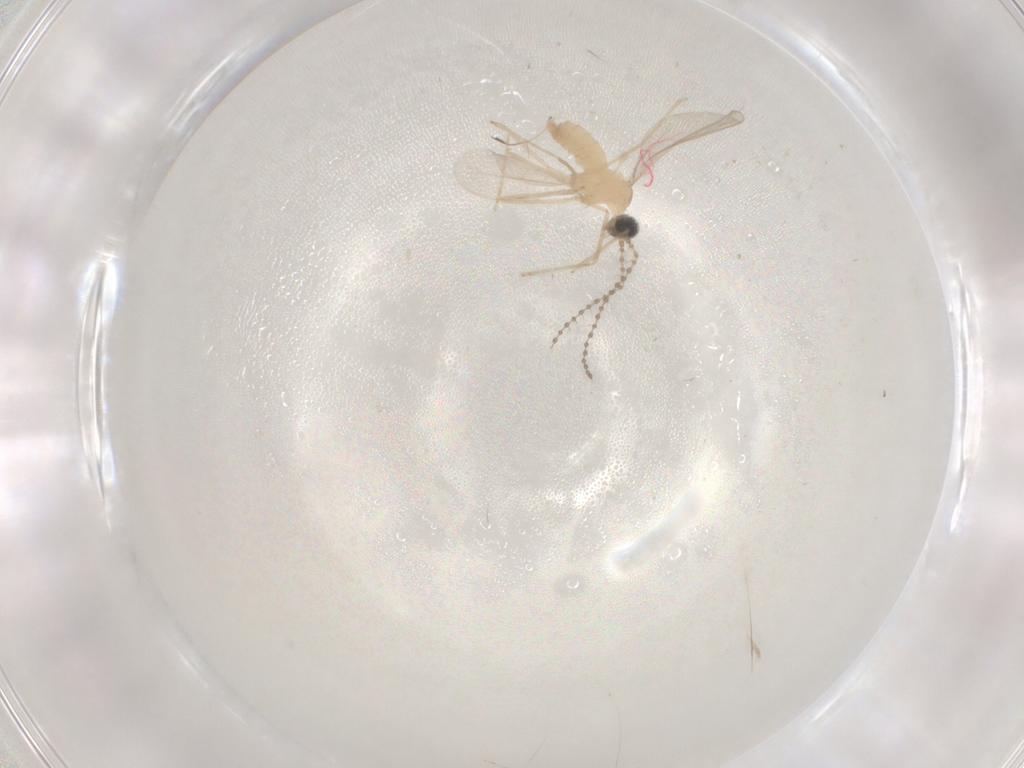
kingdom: Animalia
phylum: Arthropoda
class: Insecta
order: Diptera
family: Cecidomyiidae
